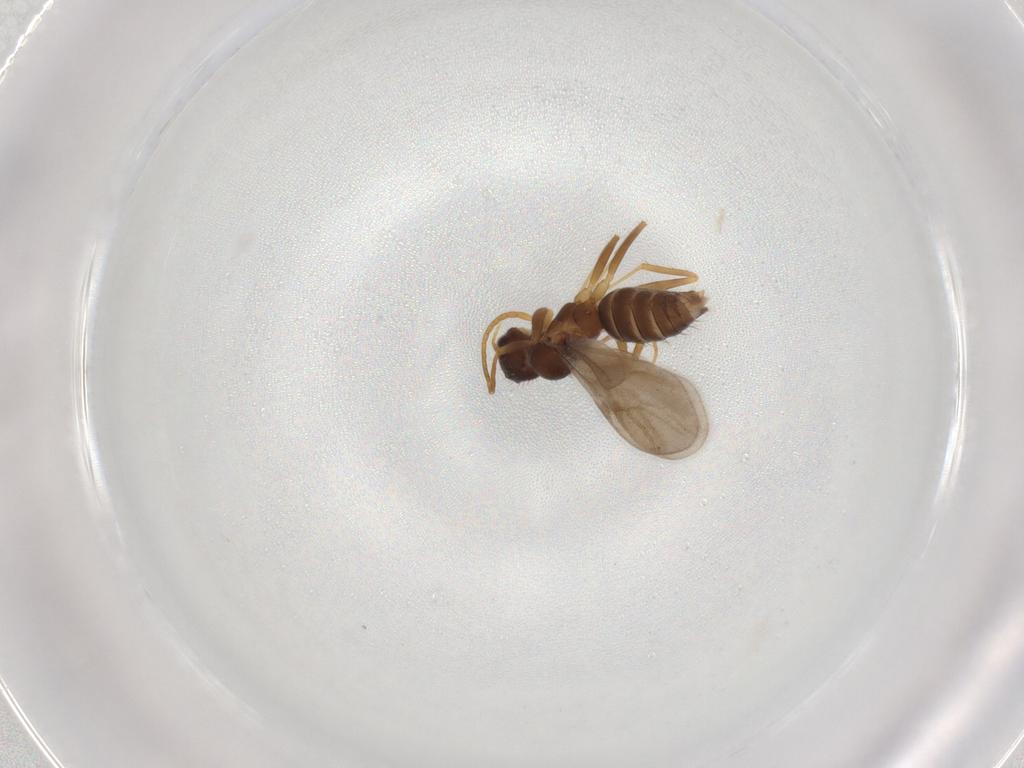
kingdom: Animalia
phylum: Arthropoda
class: Insecta
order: Hymenoptera
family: Formicidae
